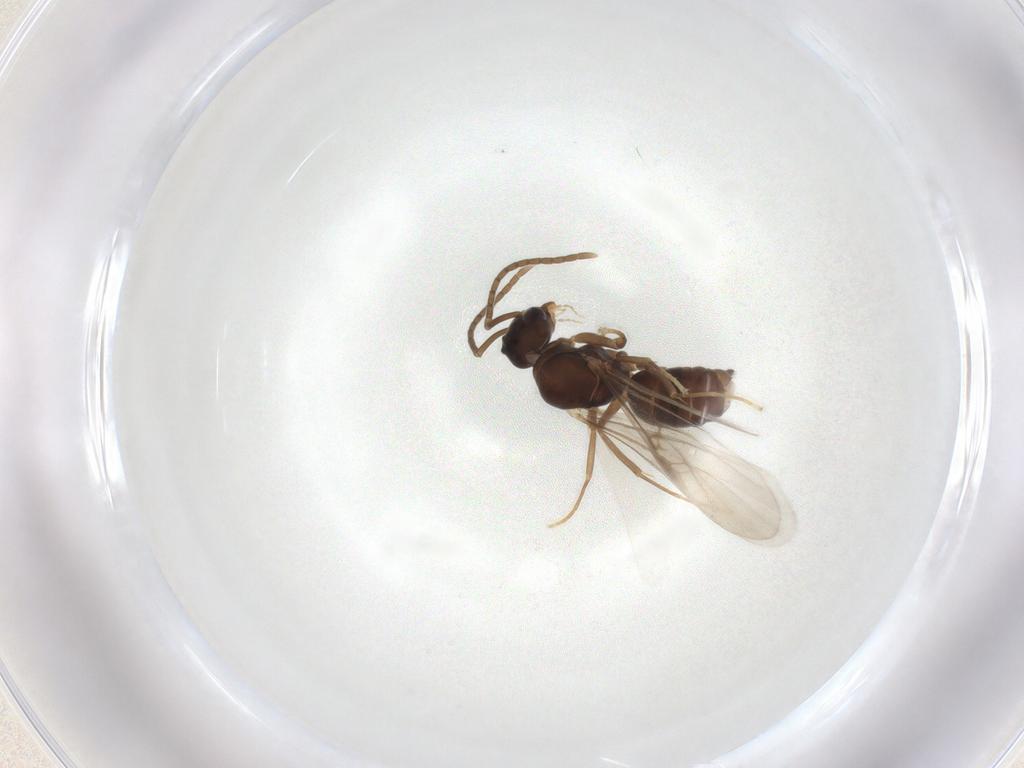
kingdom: Animalia
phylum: Arthropoda
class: Insecta
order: Hymenoptera
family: Formicidae
